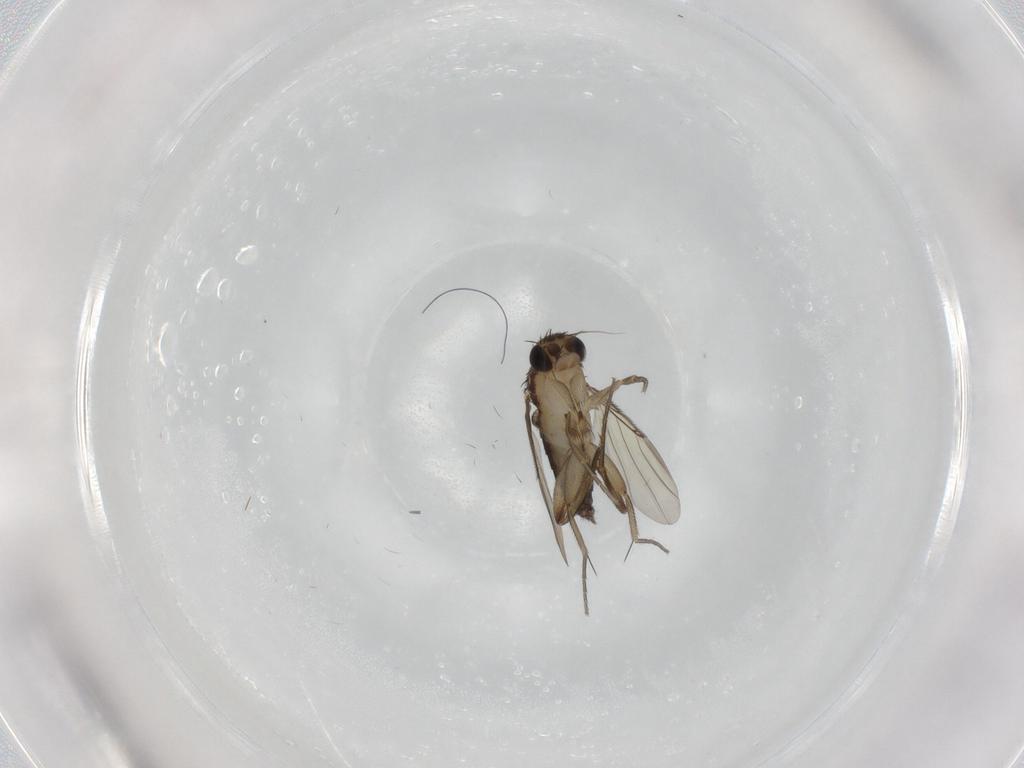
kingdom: Animalia
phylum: Arthropoda
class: Insecta
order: Diptera
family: Phoridae
